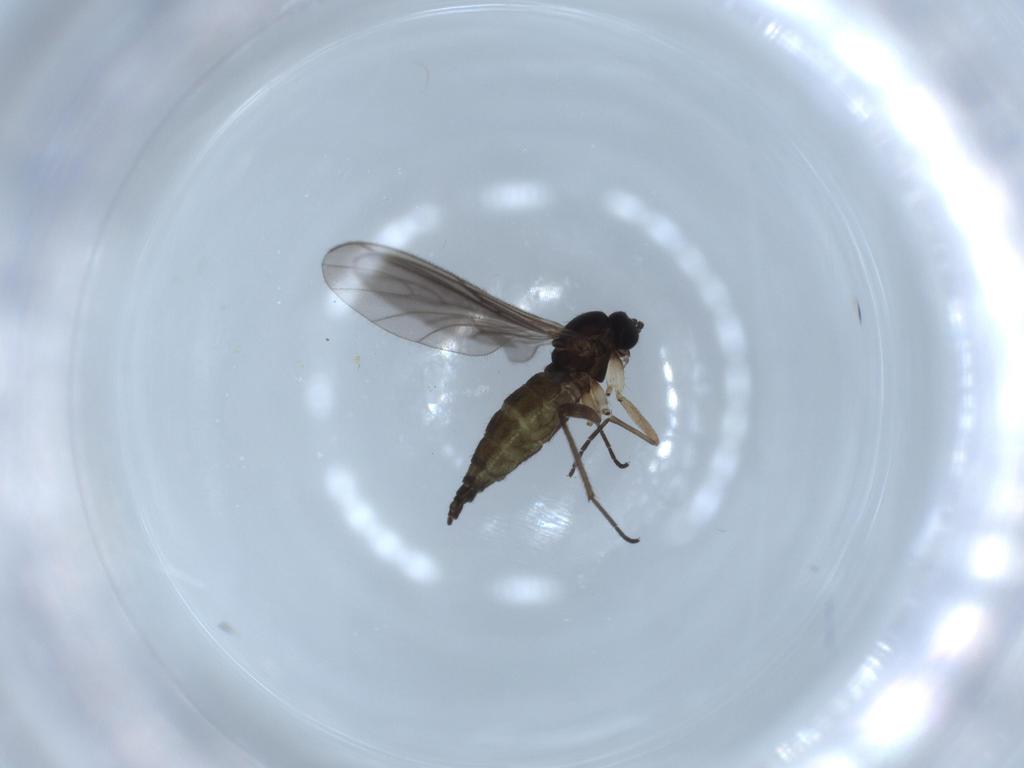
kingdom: Animalia
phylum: Arthropoda
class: Insecta
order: Diptera
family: Sciaridae
